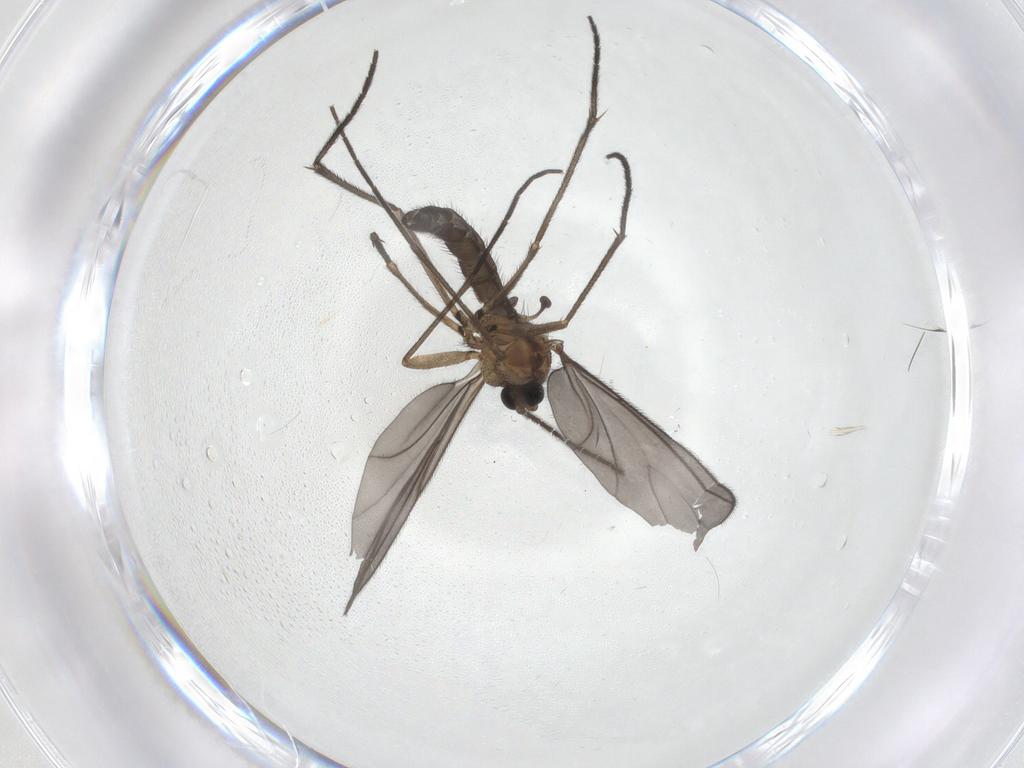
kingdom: Animalia
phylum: Arthropoda
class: Insecta
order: Diptera
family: Sciaridae
